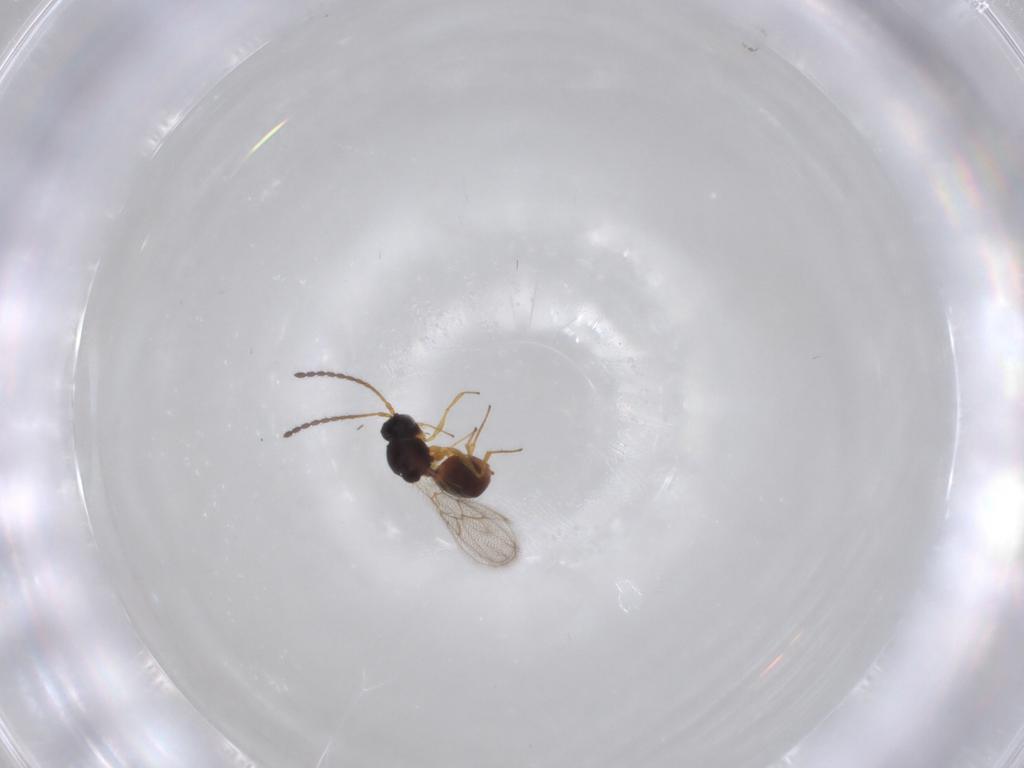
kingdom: Animalia
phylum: Arthropoda
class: Insecta
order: Hymenoptera
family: Figitidae
